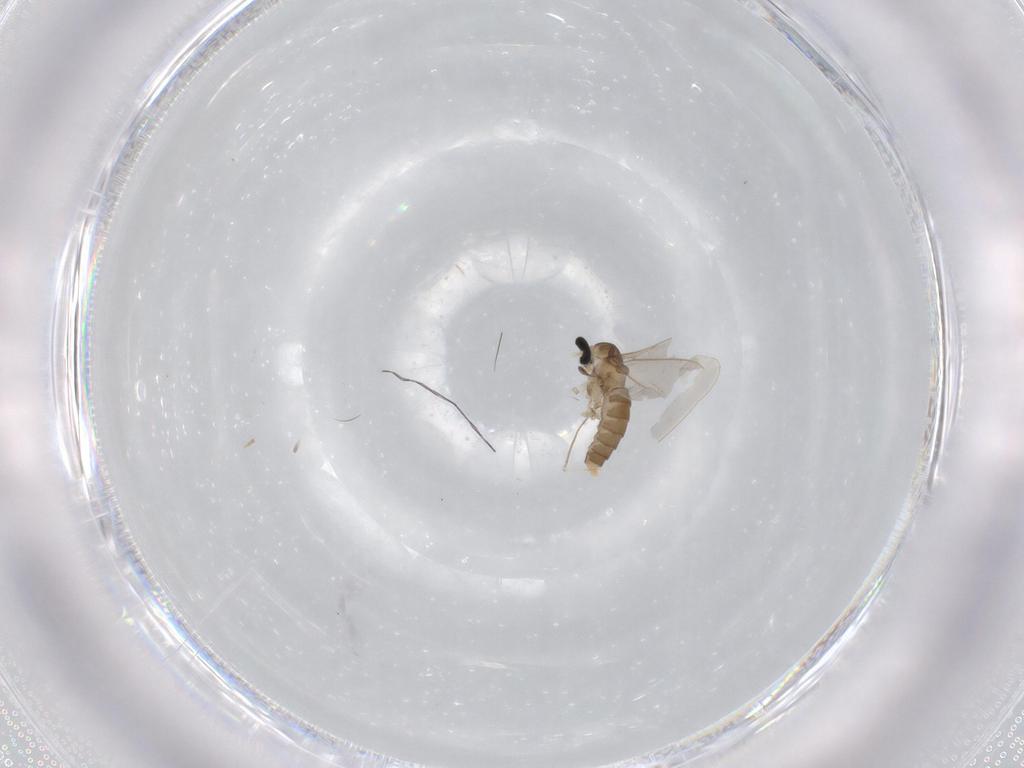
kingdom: Animalia
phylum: Arthropoda
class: Insecta
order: Diptera
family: Cecidomyiidae
